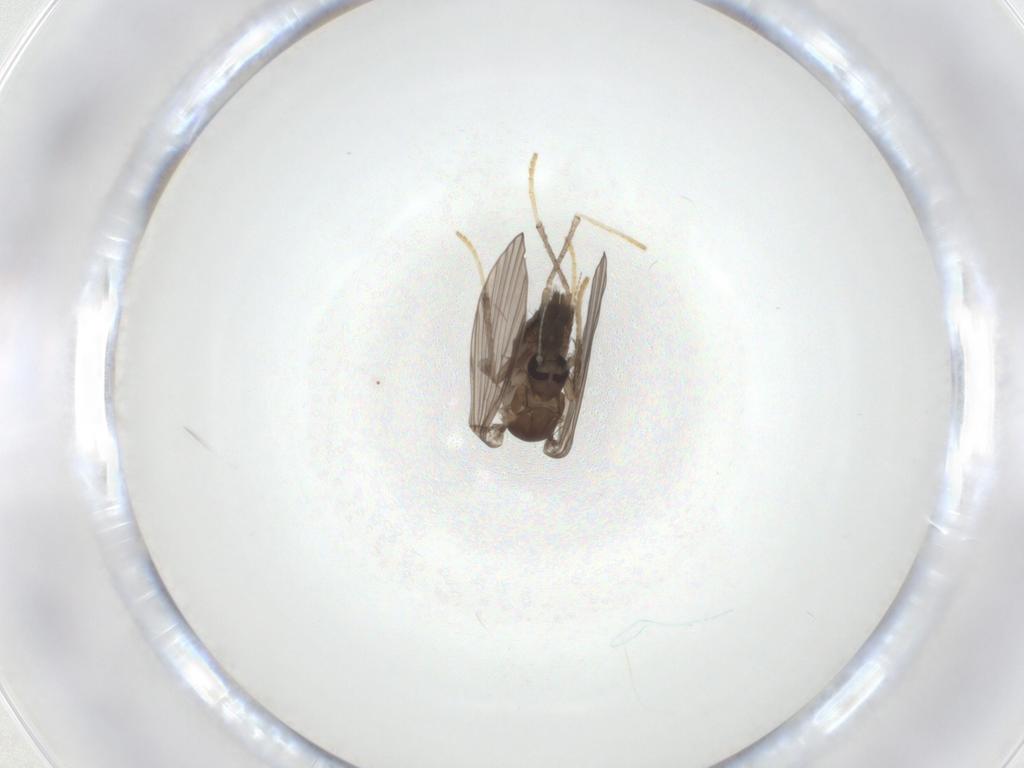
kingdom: Animalia
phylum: Arthropoda
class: Insecta
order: Diptera
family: Psychodidae
